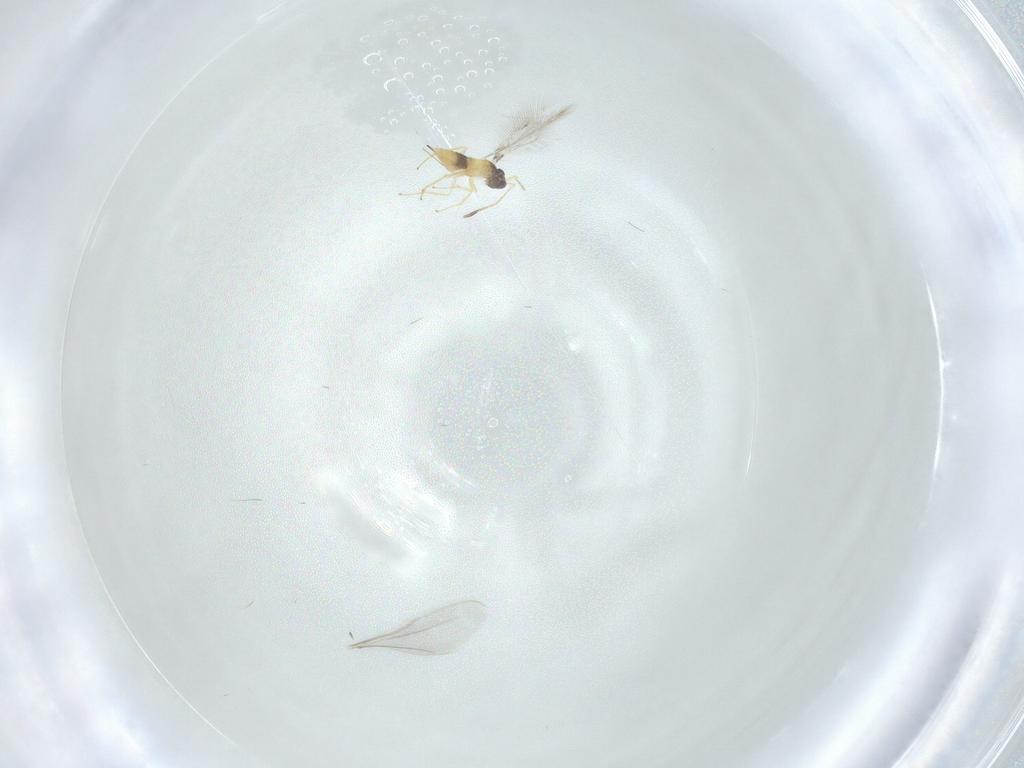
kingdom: Animalia
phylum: Arthropoda
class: Insecta
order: Hymenoptera
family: Mymaridae
